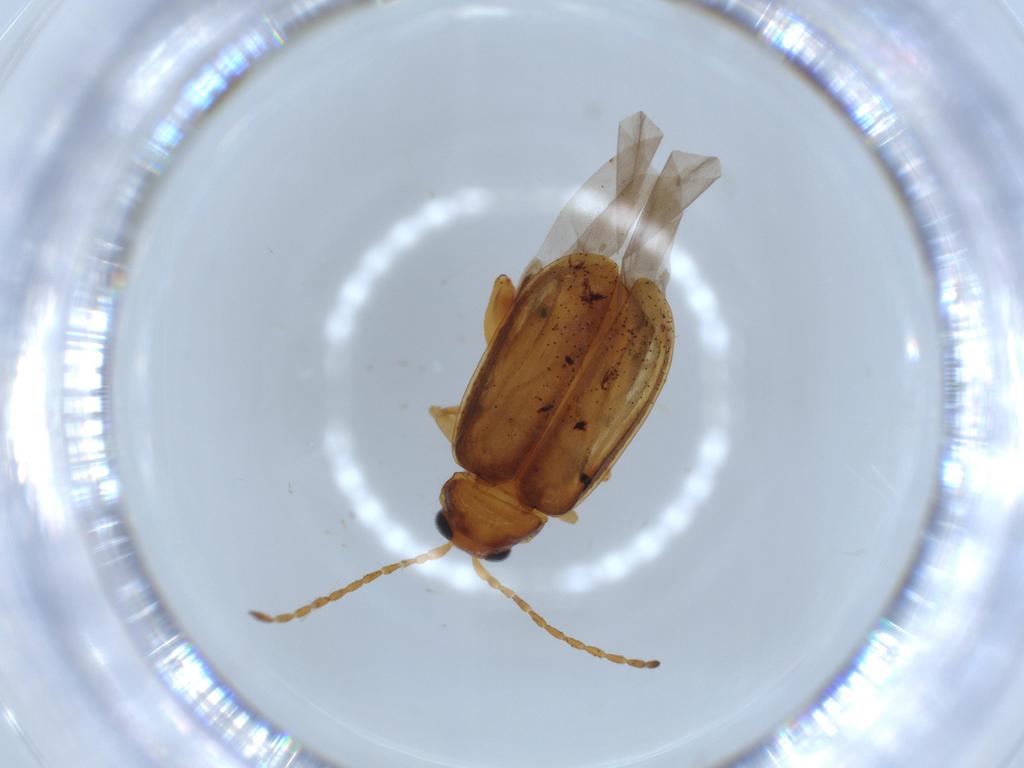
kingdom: Animalia
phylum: Arthropoda
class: Insecta
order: Coleoptera
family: Chrysomelidae
